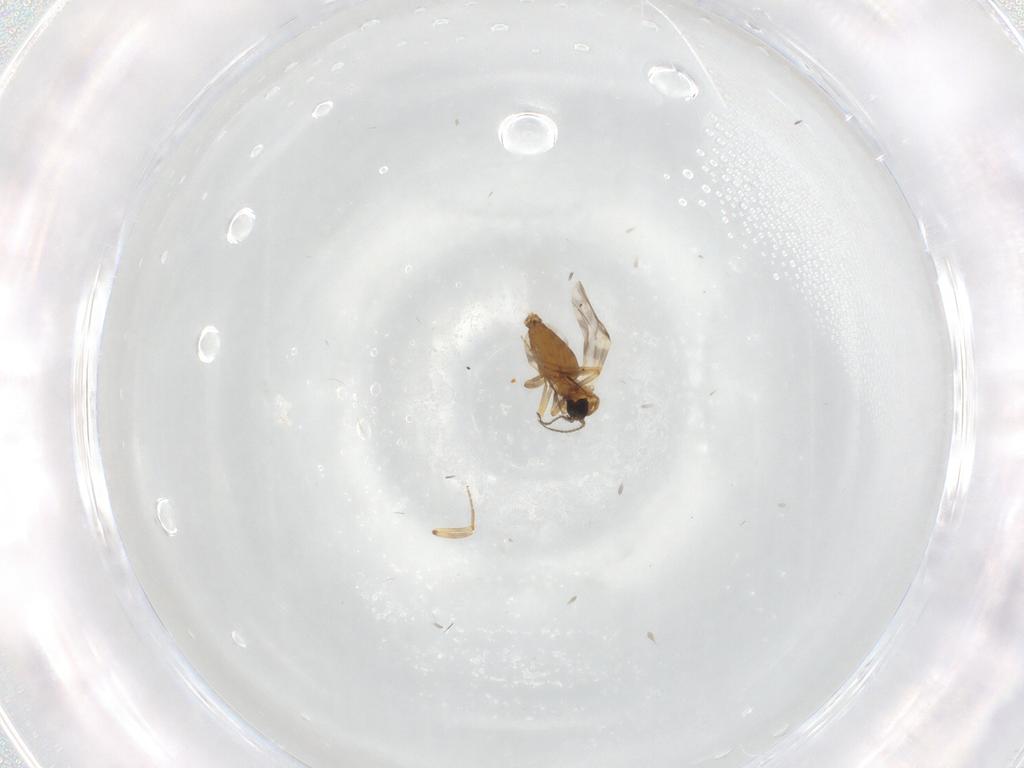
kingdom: Animalia
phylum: Arthropoda
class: Insecta
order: Diptera
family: Ceratopogonidae
